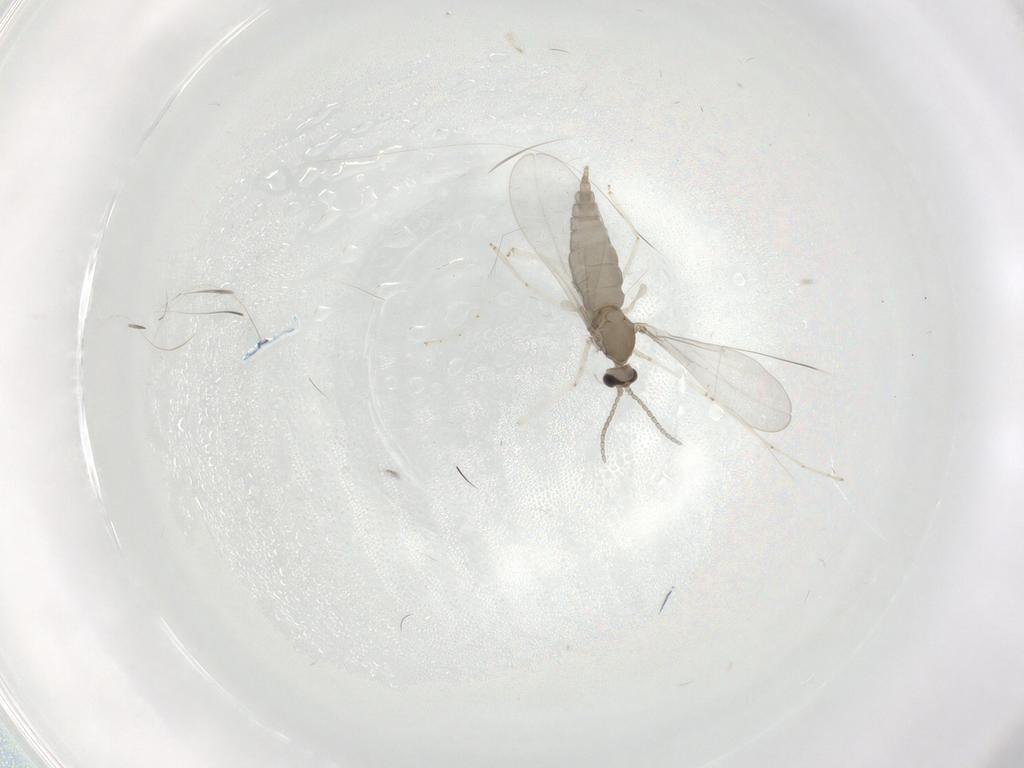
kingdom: Animalia
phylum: Arthropoda
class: Insecta
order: Diptera
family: Cecidomyiidae
